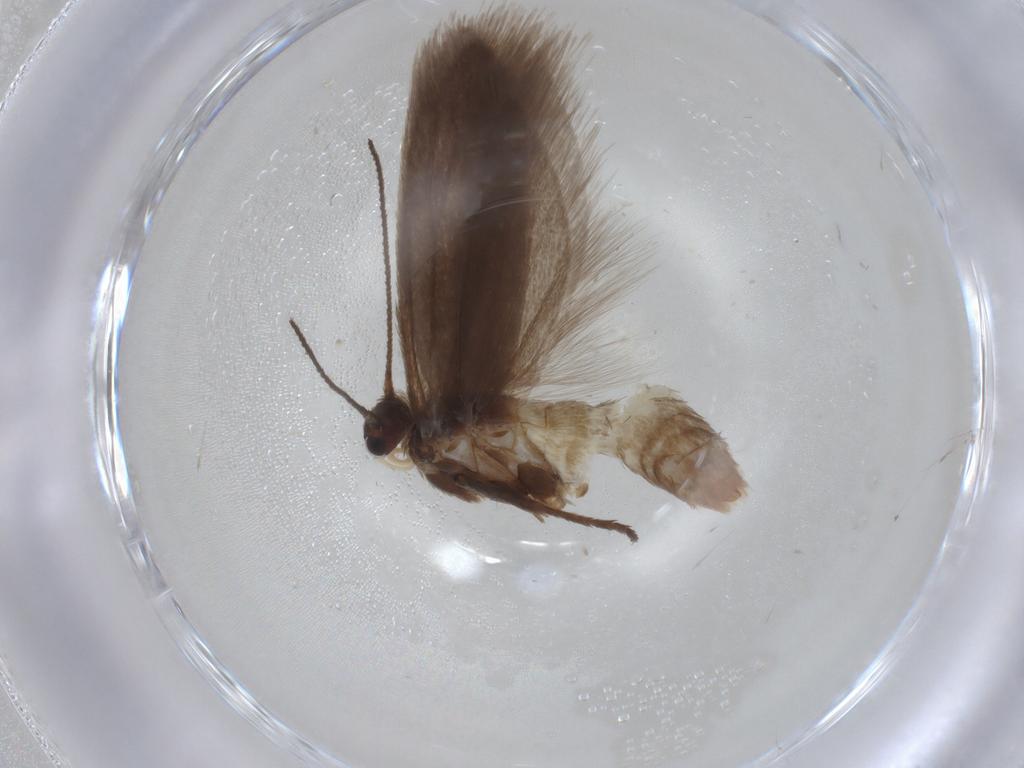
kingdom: Animalia
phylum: Arthropoda
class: Insecta
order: Lepidoptera
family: Limacodidae
